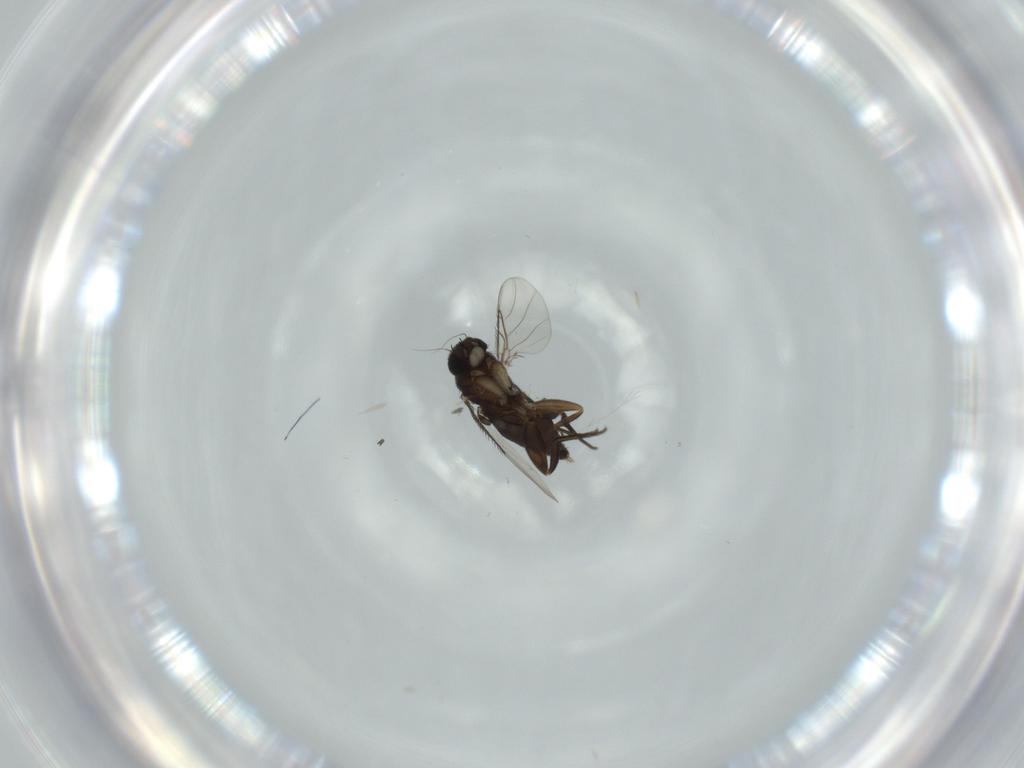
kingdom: Animalia
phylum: Arthropoda
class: Insecta
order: Diptera
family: Phoridae
